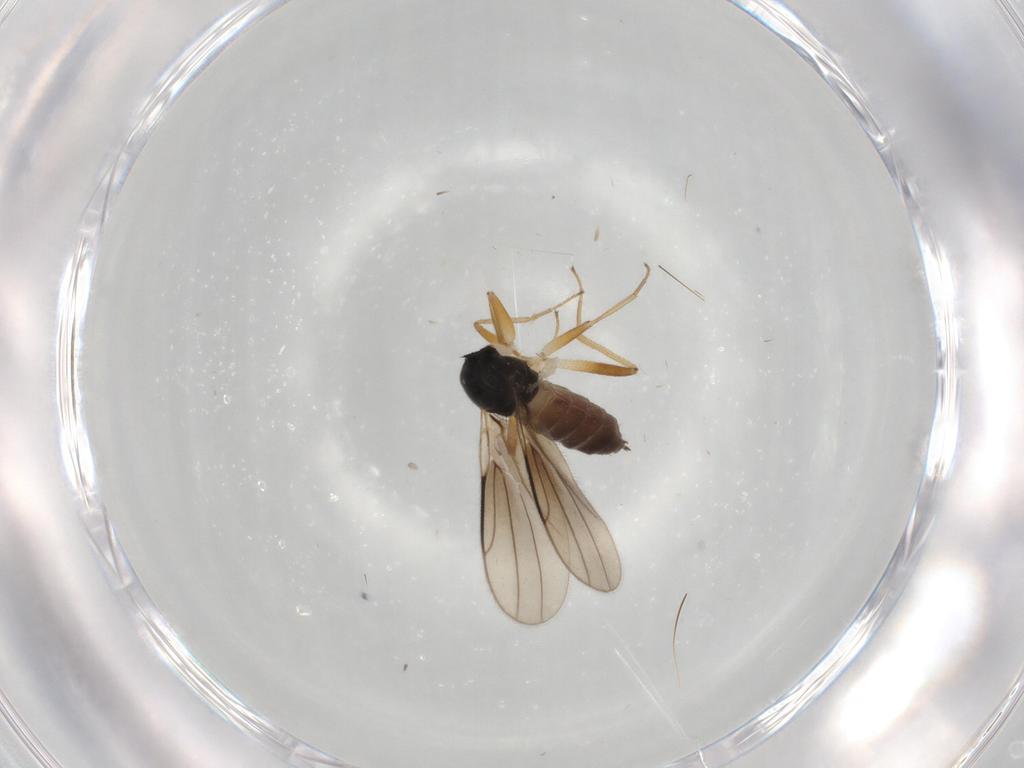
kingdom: Animalia
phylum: Arthropoda
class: Insecta
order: Diptera
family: Hybotidae
